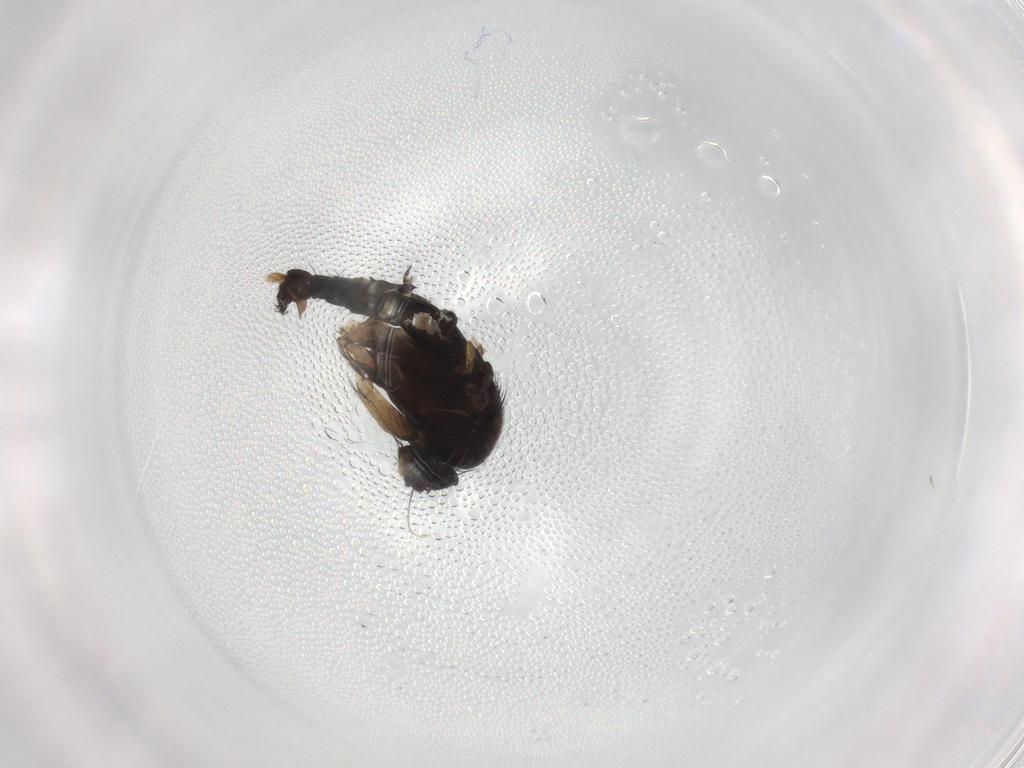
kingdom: Animalia
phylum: Arthropoda
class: Insecta
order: Diptera
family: Phoridae
